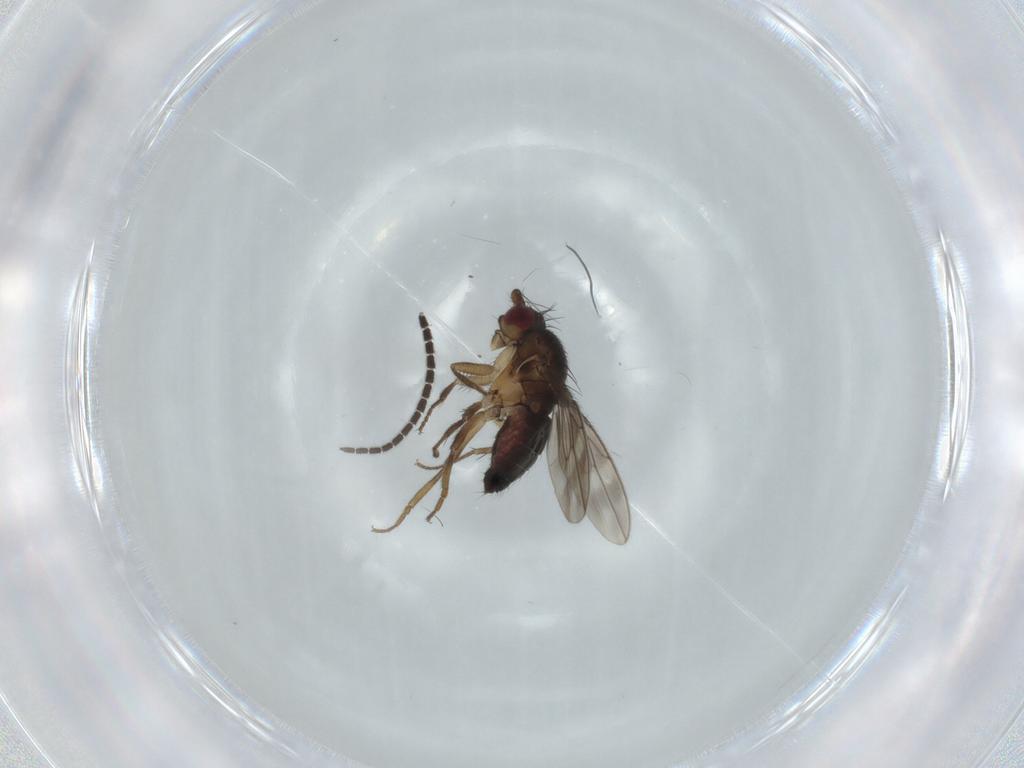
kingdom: Animalia
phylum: Arthropoda
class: Insecta
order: Diptera
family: Sphaeroceridae
